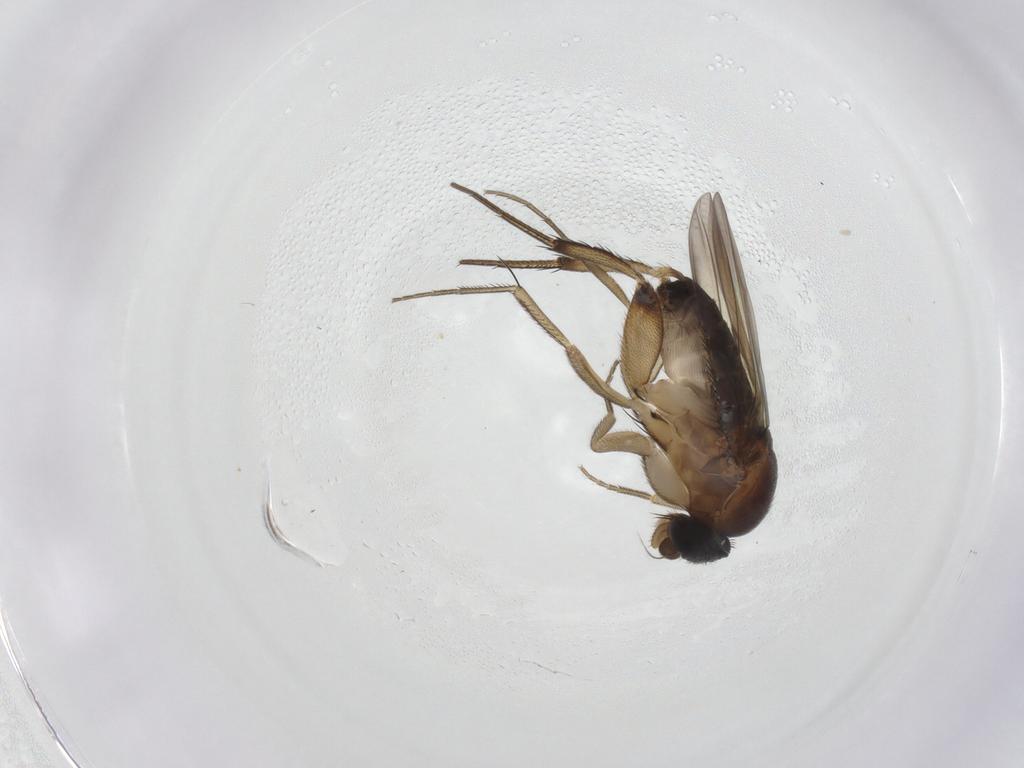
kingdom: Animalia
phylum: Arthropoda
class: Insecta
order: Diptera
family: Phoridae
